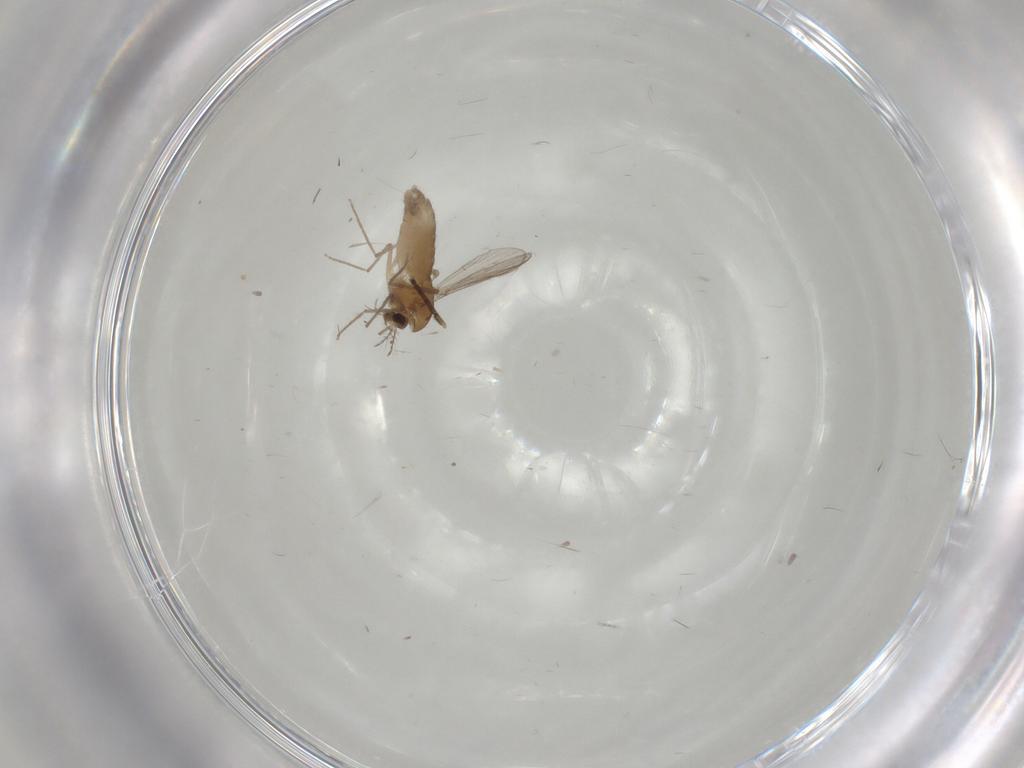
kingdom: Animalia
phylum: Arthropoda
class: Insecta
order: Diptera
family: Chironomidae
